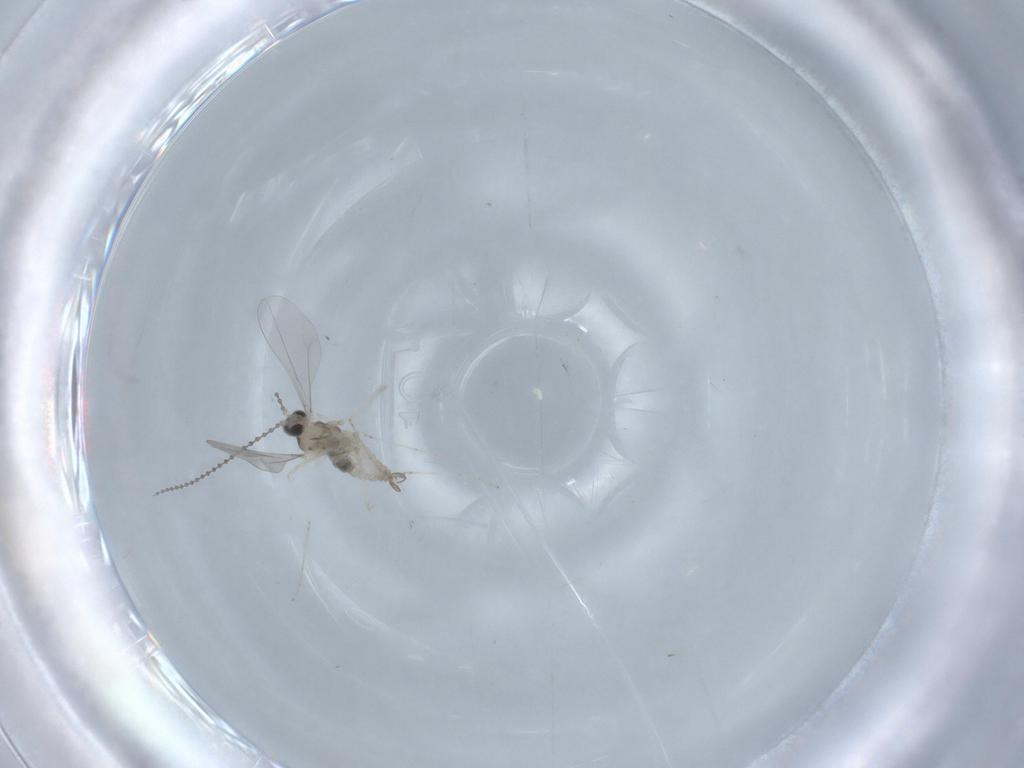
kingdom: Animalia
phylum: Arthropoda
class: Insecta
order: Diptera
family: Cecidomyiidae
